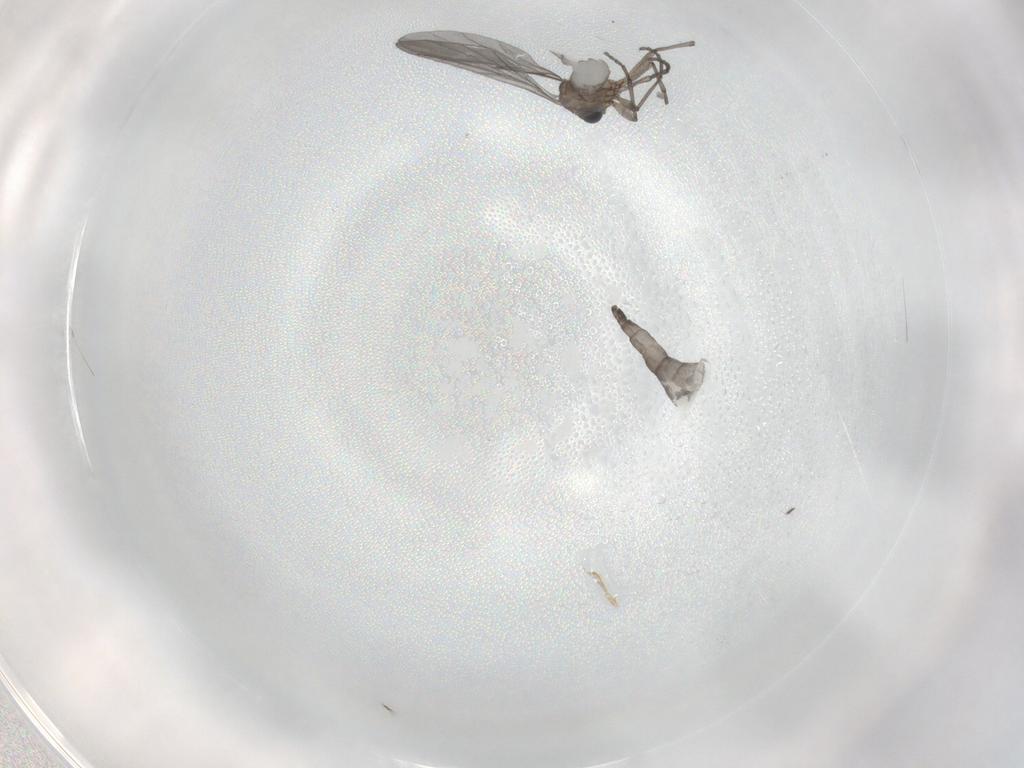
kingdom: Animalia
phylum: Arthropoda
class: Insecta
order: Diptera
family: Sciaridae
